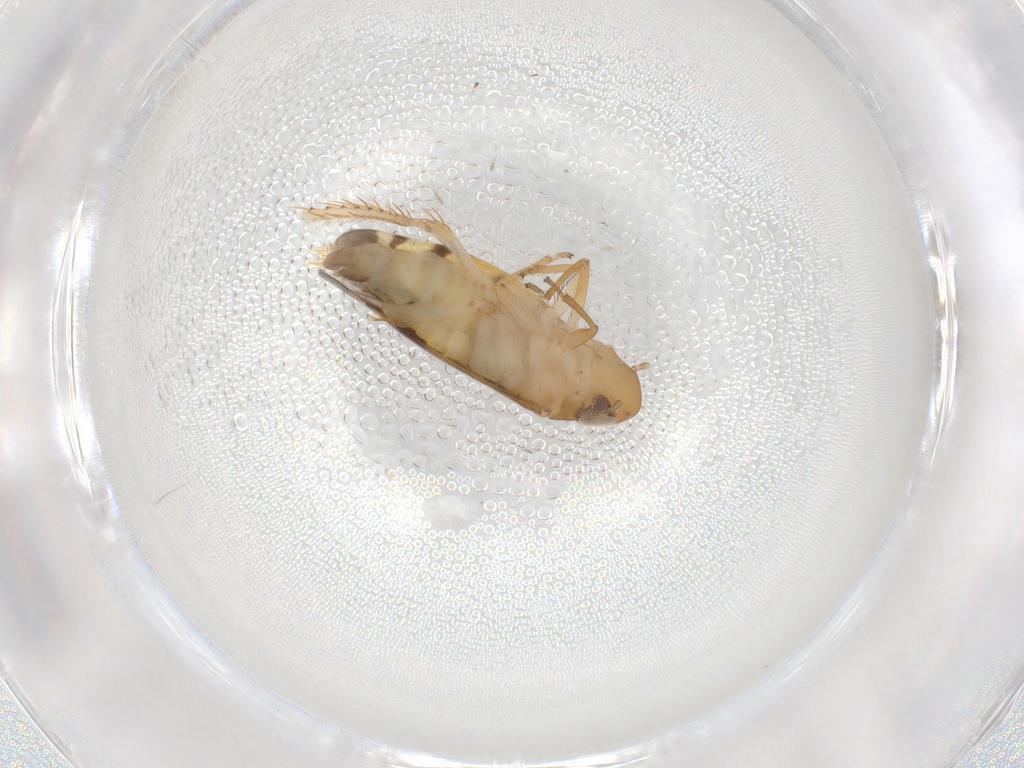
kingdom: Animalia
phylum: Arthropoda
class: Insecta
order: Hemiptera
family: Cicadellidae
